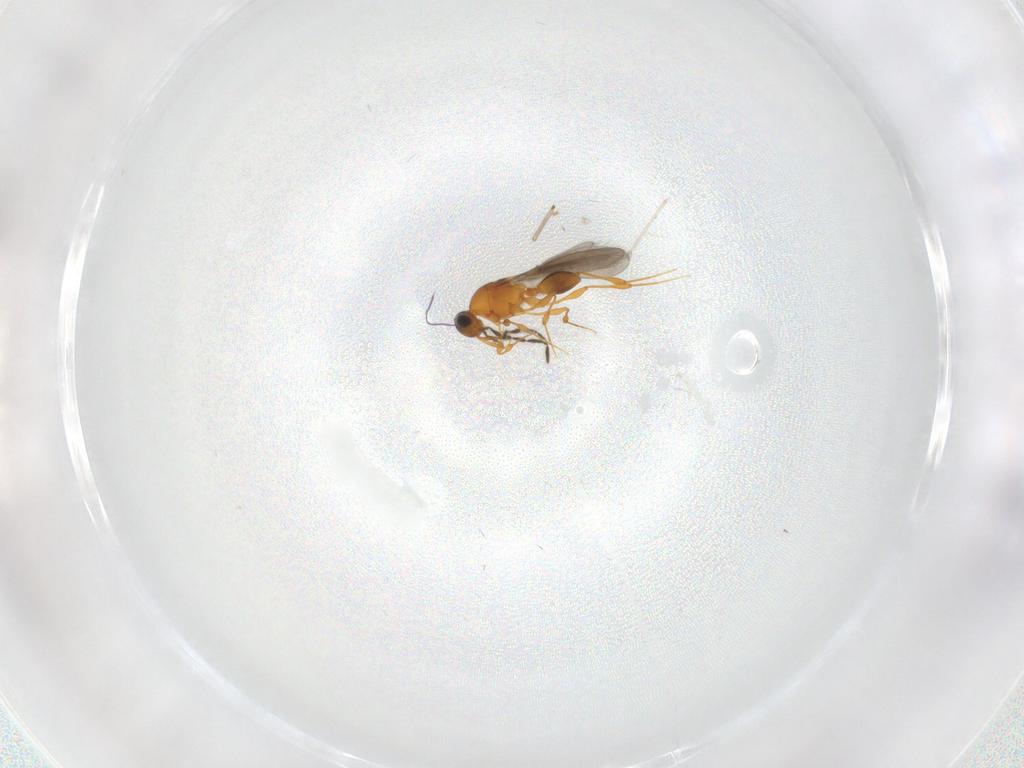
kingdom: Animalia
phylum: Arthropoda
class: Insecta
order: Hymenoptera
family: Platygastridae
